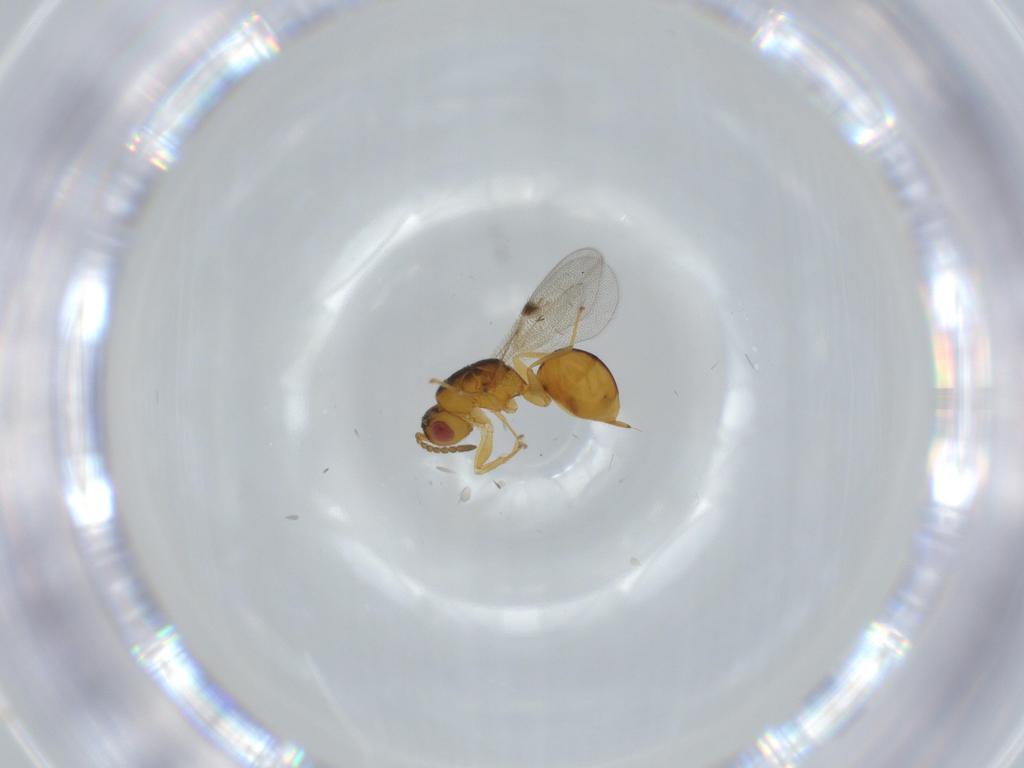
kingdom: Animalia
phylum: Arthropoda
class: Insecta
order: Hymenoptera
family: Eurytomidae
